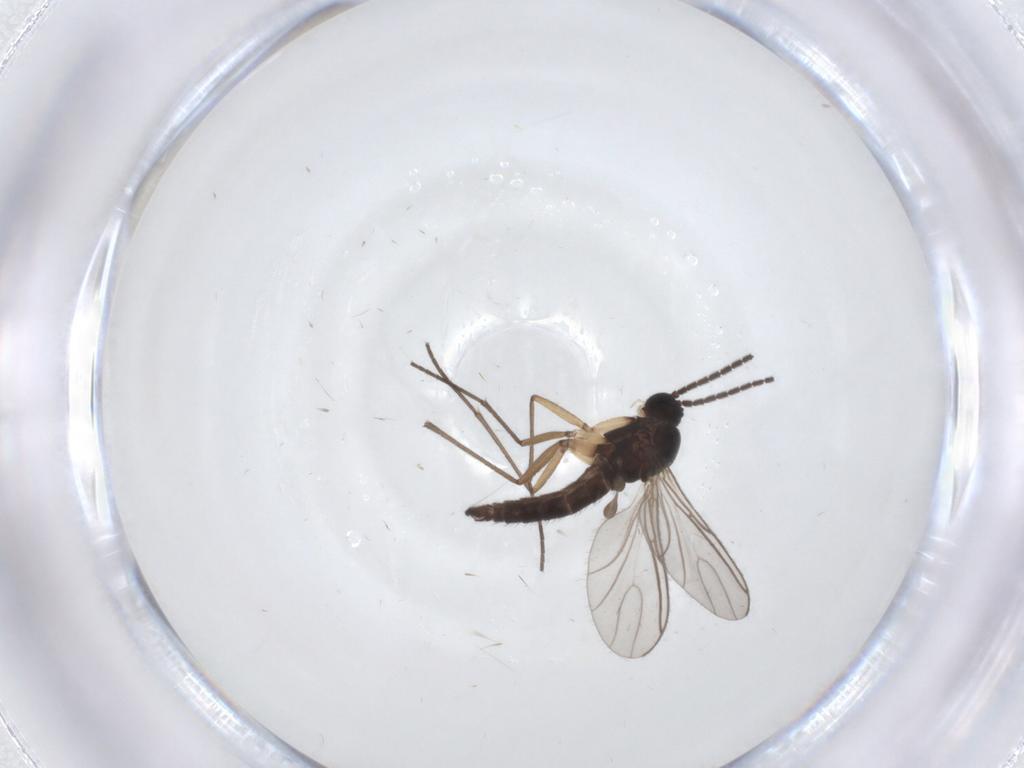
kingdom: Animalia
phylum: Arthropoda
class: Insecta
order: Diptera
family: Sciaridae
